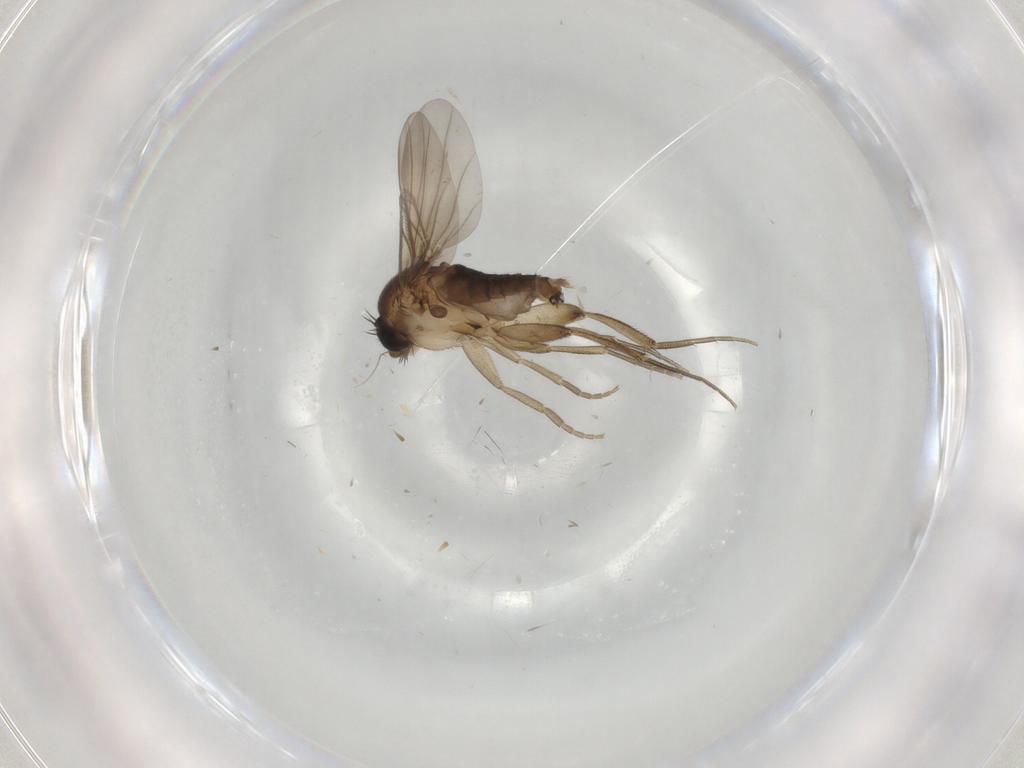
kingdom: Animalia
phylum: Arthropoda
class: Insecta
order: Diptera
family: Phoridae
